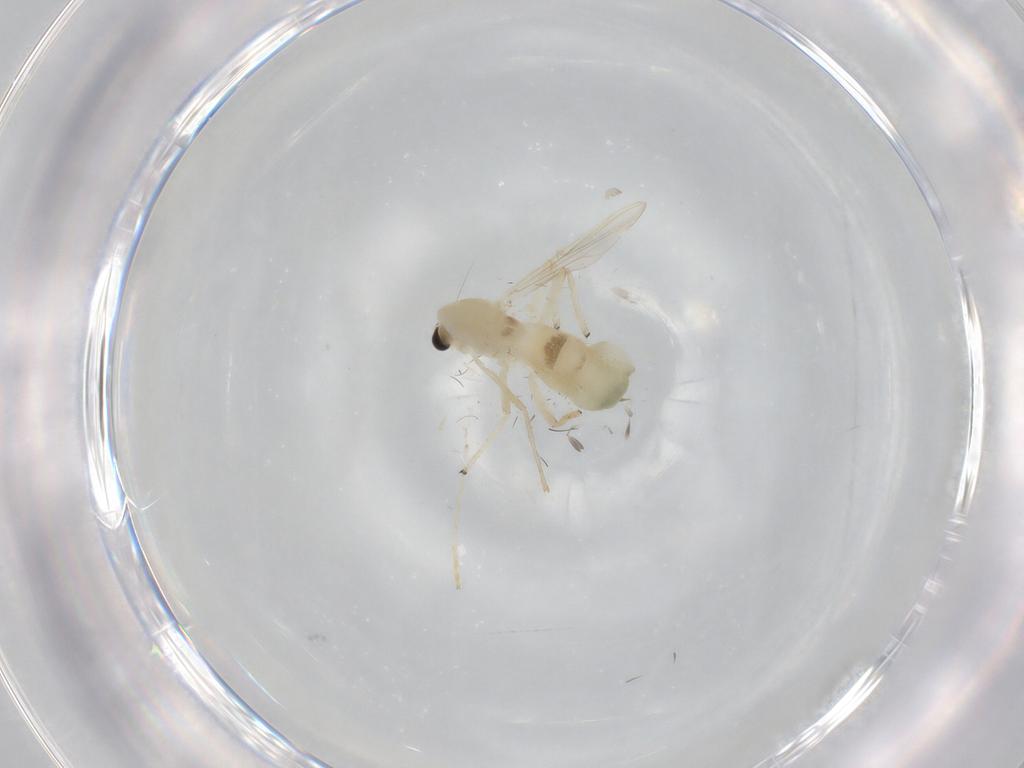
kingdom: Animalia
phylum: Arthropoda
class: Insecta
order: Diptera
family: Chironomidae
